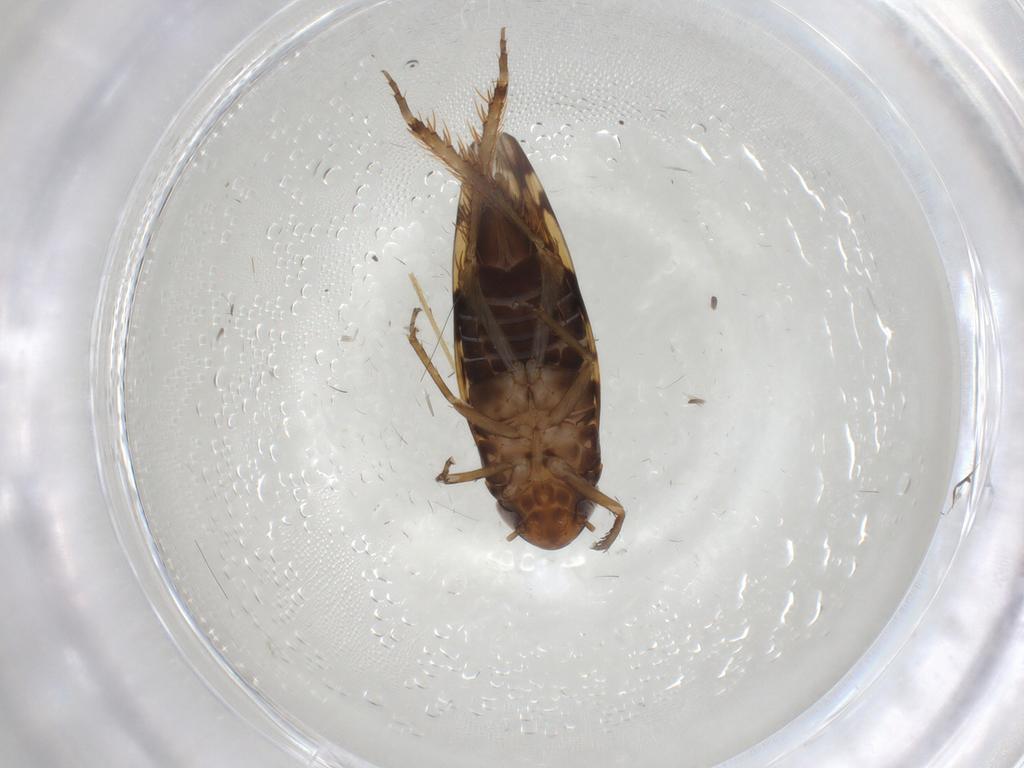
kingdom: Animalia
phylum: Arthropoda
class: Insecta
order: Hemiptera
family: Cicadellidae
